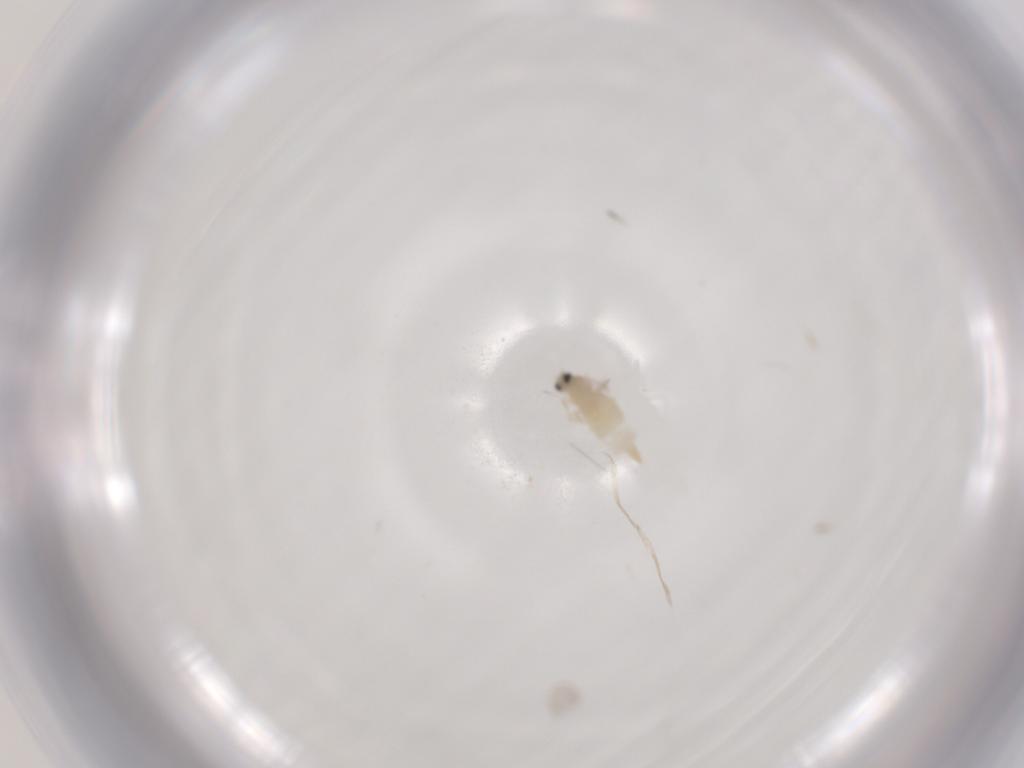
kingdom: Animalia
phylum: Arthropoda
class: Insecta
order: Diptera
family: Cecidomyiidae
